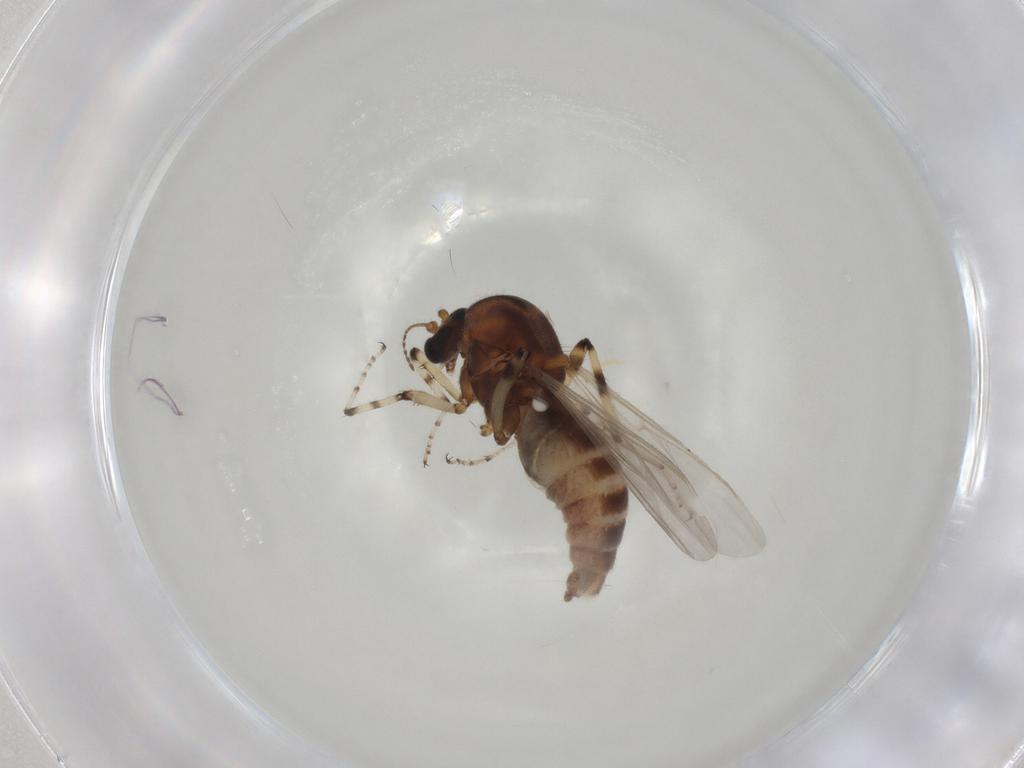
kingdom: Animalia
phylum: Arthropoda
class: Insecta
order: Diptera
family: Ceratopogonidae
